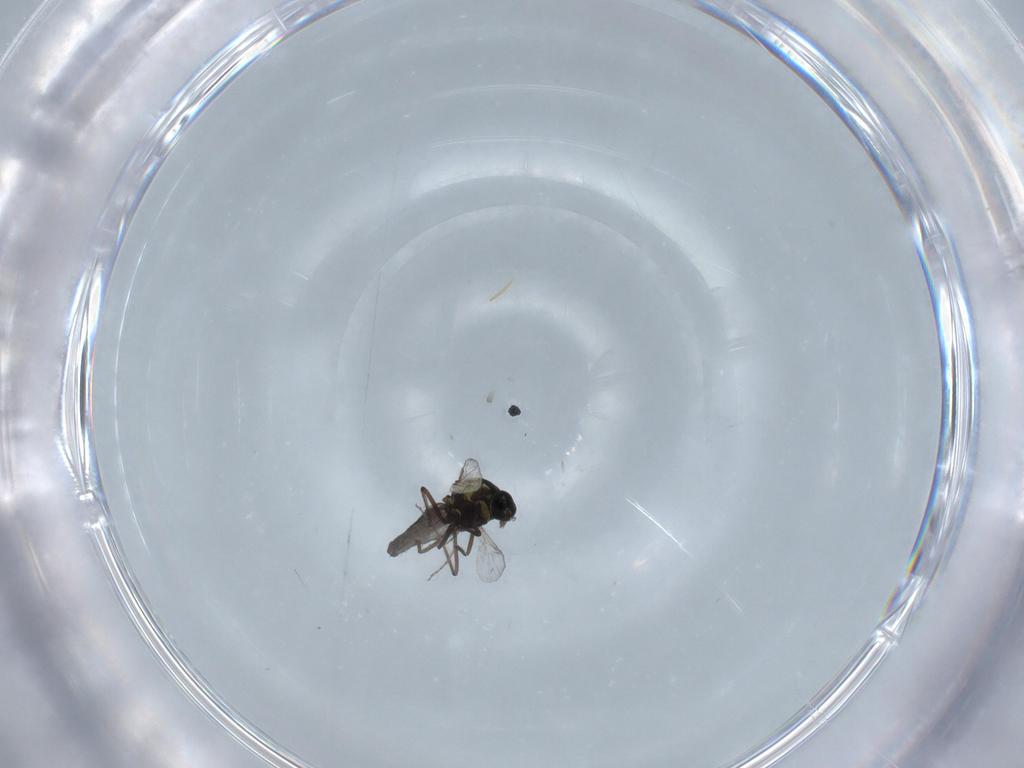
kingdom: Animalia
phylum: Arthropoda
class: Insecta
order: Diptera
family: Ceratopogonidae
